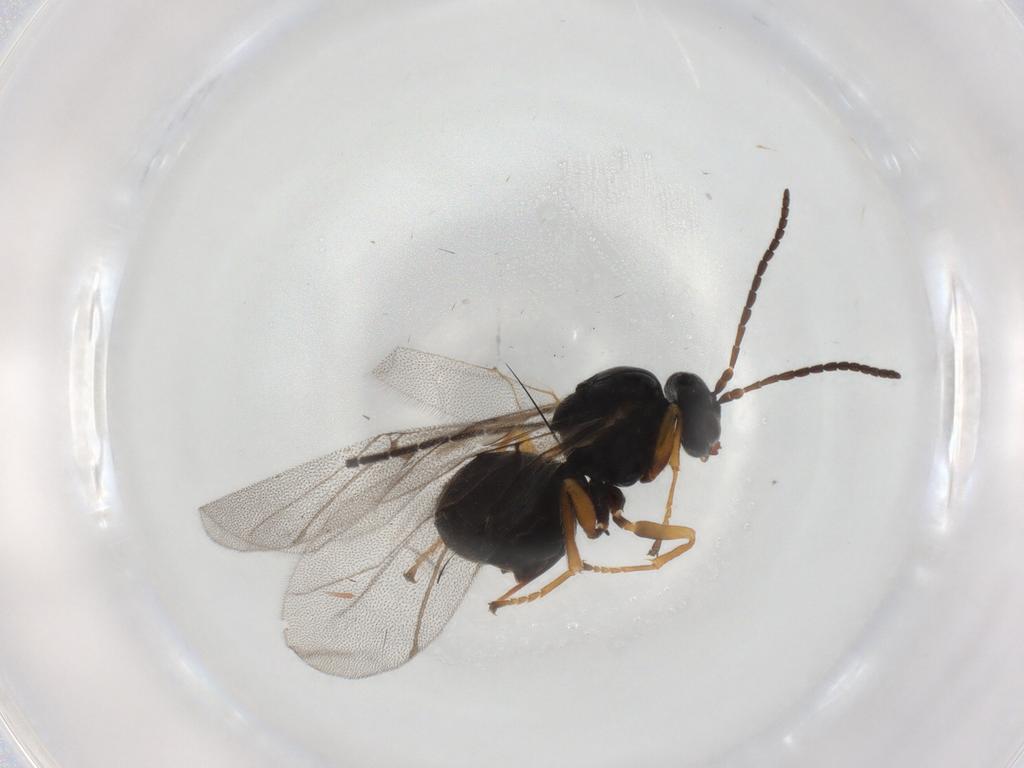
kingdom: Animalia
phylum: Arthropoda
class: Insecta
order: Hymenoptera
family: Cynipidae
